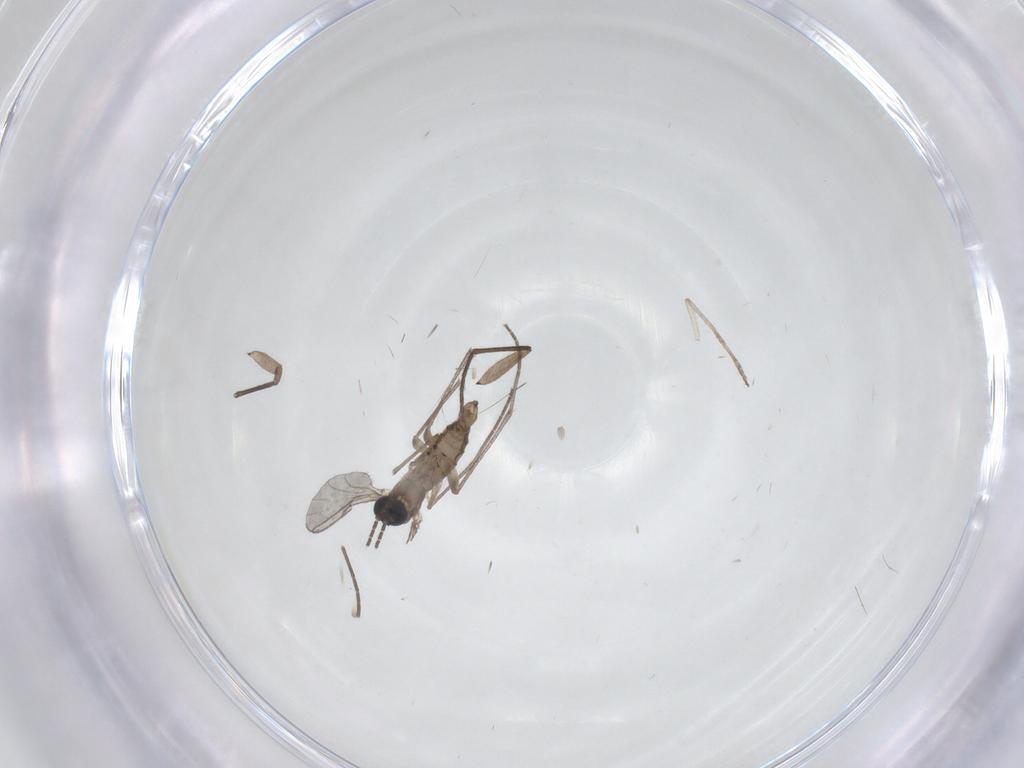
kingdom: Animalia
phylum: Arthropoda
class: Insecta
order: Diptera
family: Sciaridae
